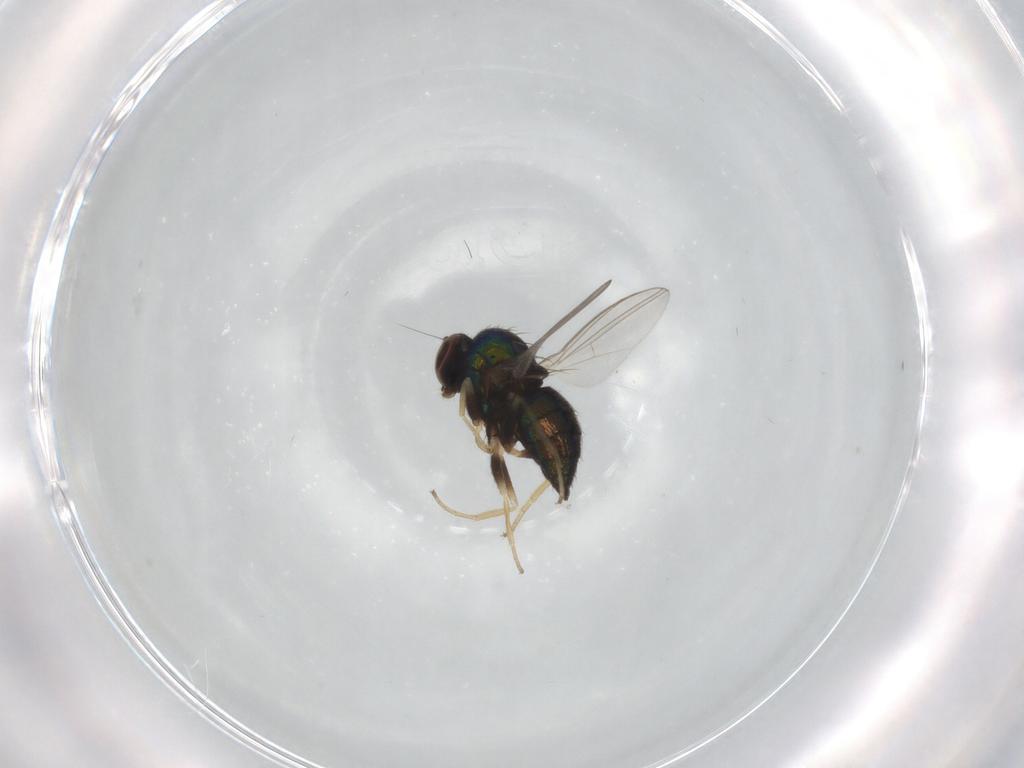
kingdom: Animalia
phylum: Arthropoda
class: Insecta
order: Diptera
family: Dolichopodidae
